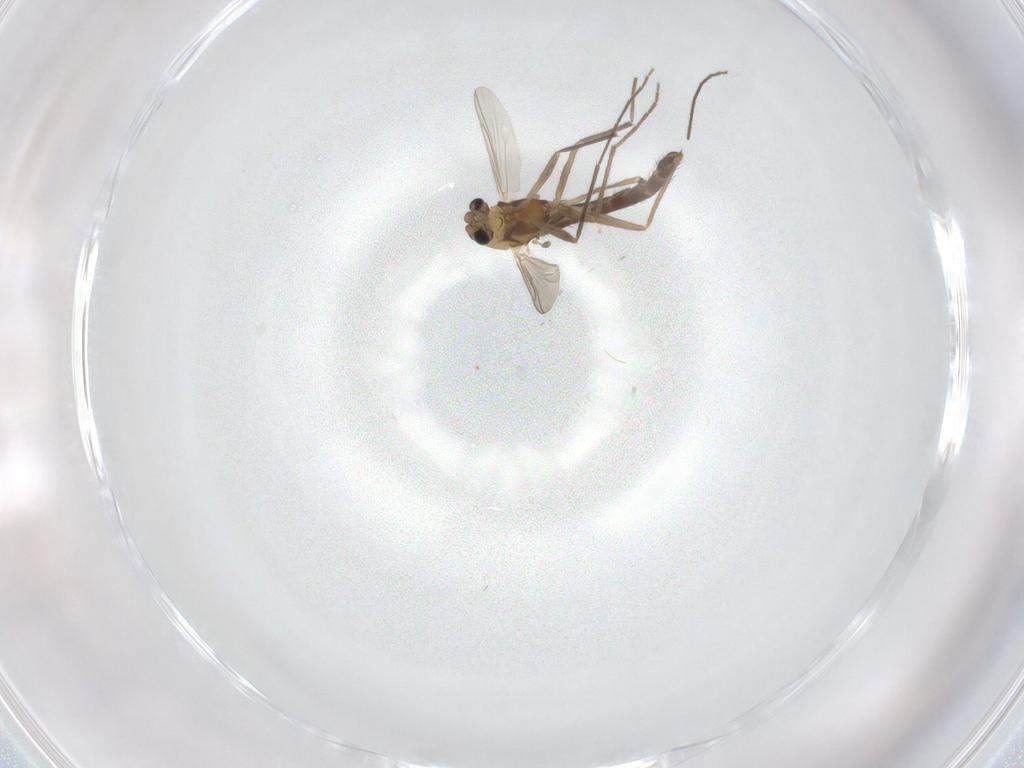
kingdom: Animalia
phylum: Arthropoda
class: Insecta
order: Diptera
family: Chironomidae
